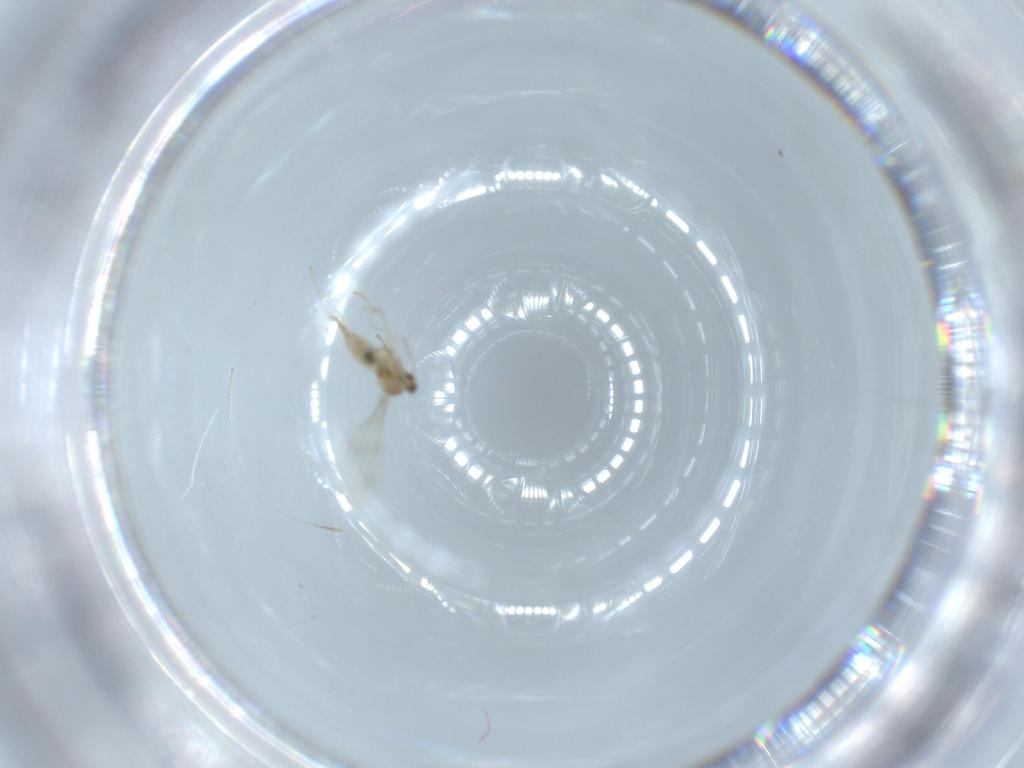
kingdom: Animalia
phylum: Arthropoda
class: Insecta
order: Diptera
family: Cecidomyiidae
